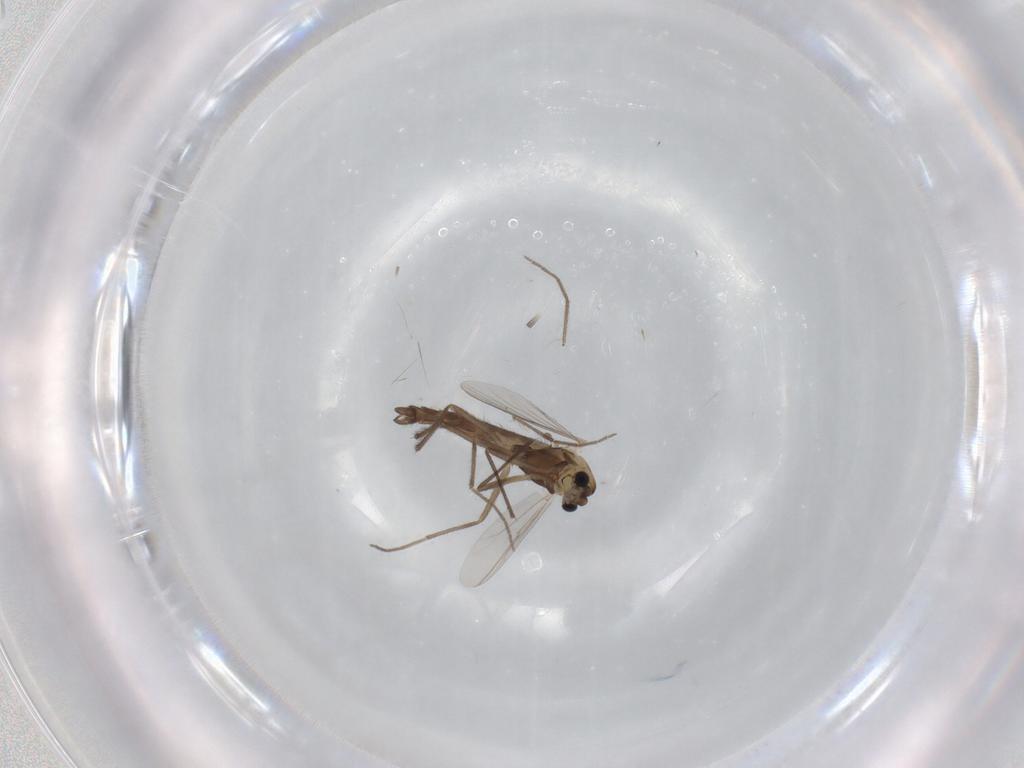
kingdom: Animalia
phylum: Arthropoda
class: Insecta
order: Diptera
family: Chironomidae
